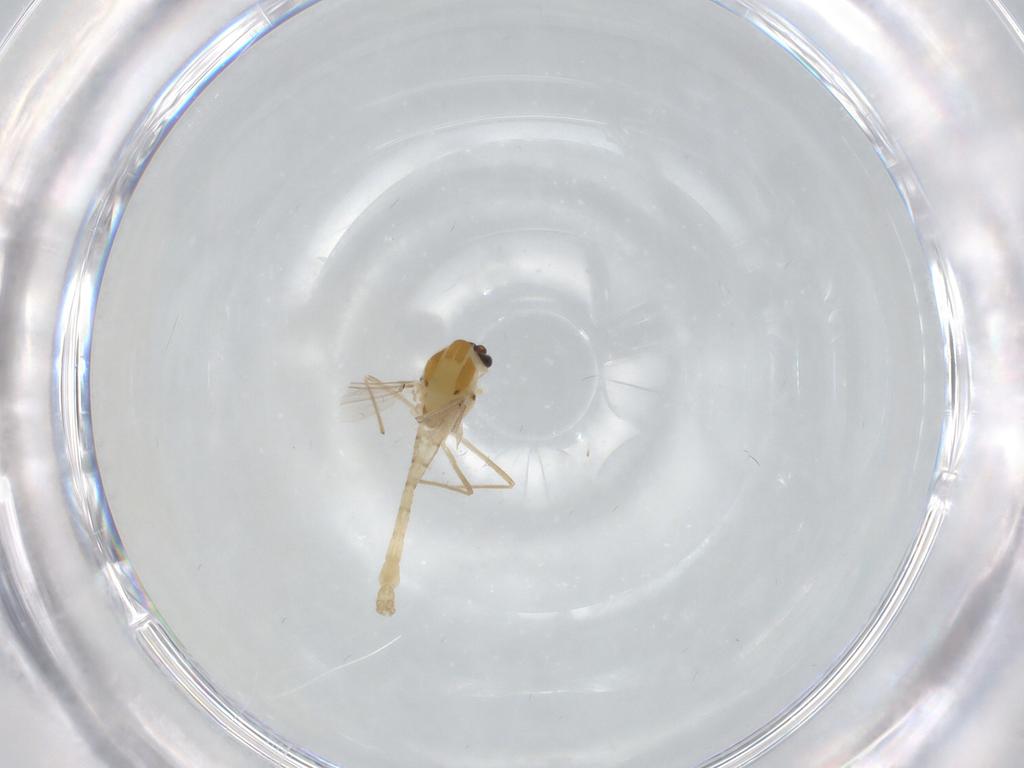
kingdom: Animalia
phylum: Arthropoda
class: Insecta
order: Diptera
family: Chironomidae
